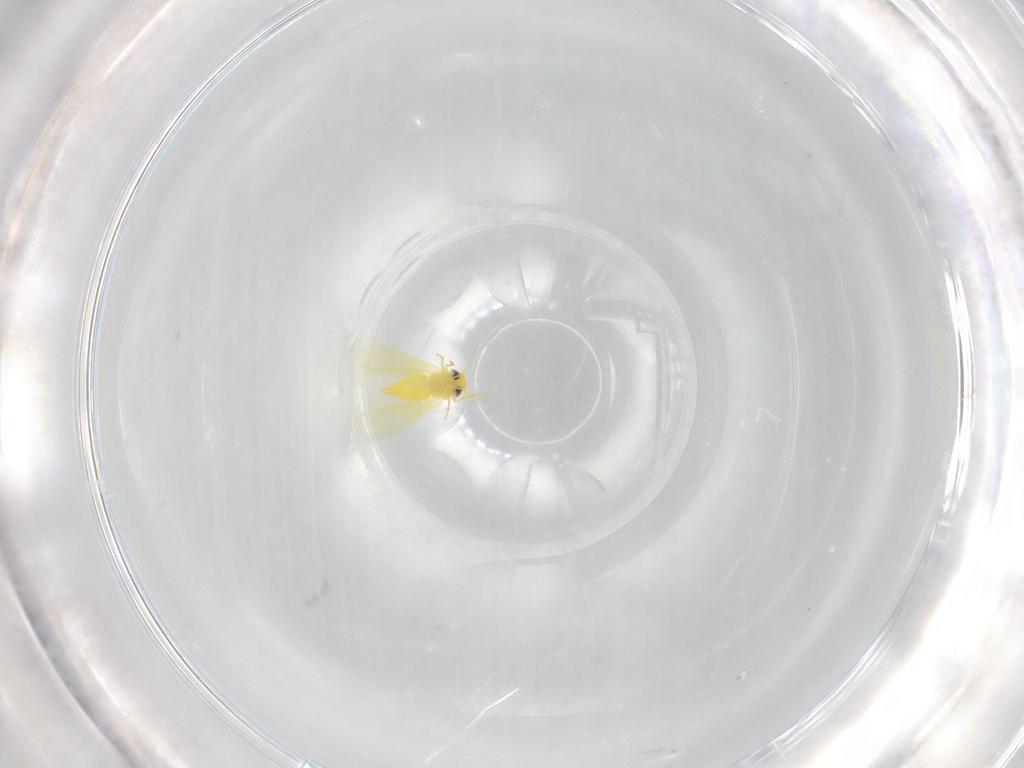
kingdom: Animalia
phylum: Arthropoda
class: Insecta
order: Hemiptera
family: Aleyrodidae
